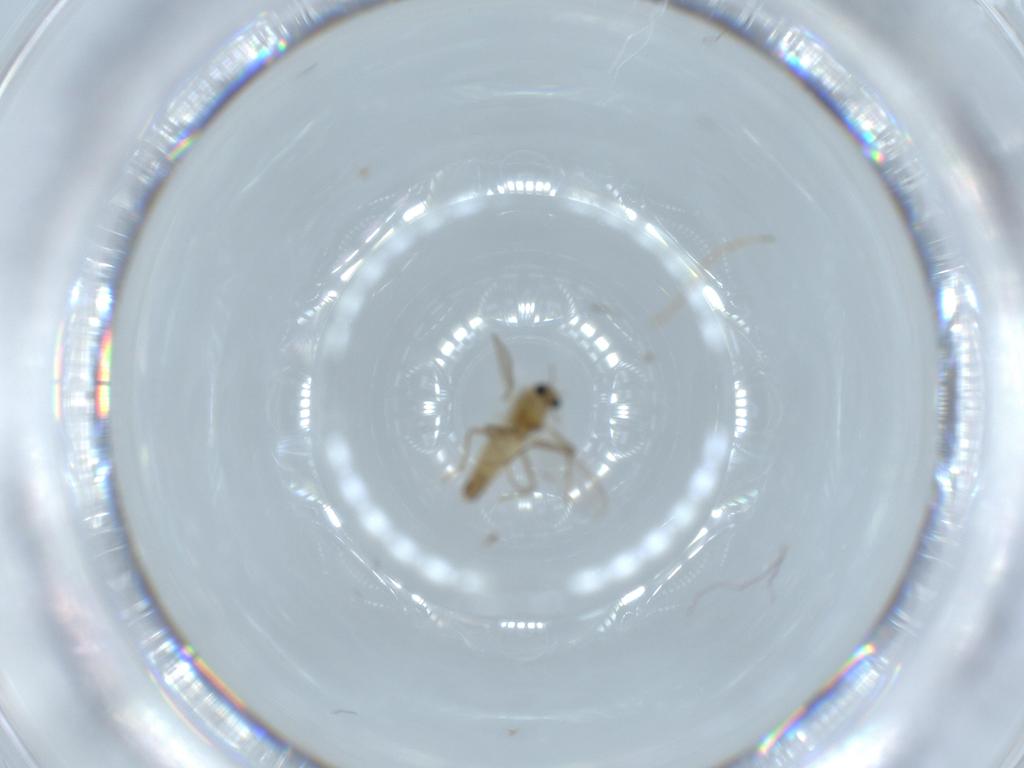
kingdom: Animalia
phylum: Arthropoda
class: Insecta
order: Diptera
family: Chironomidae
